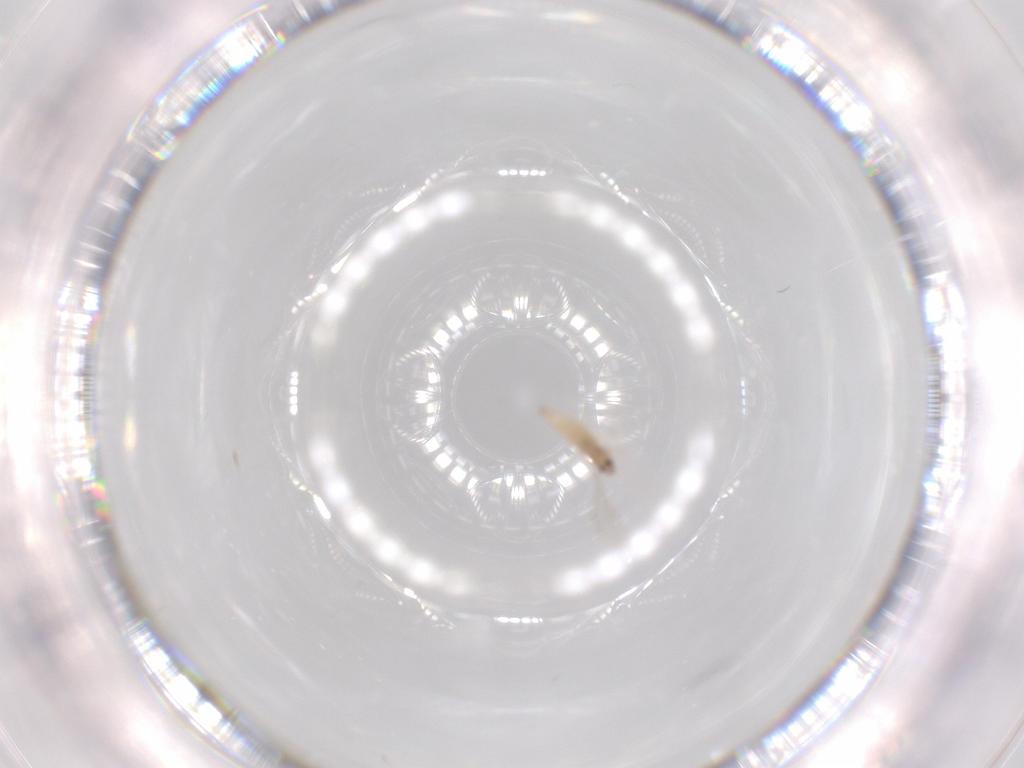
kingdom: Animalia
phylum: Arthropoda
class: Insecta
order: Diptera
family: Cecidomyiidae
